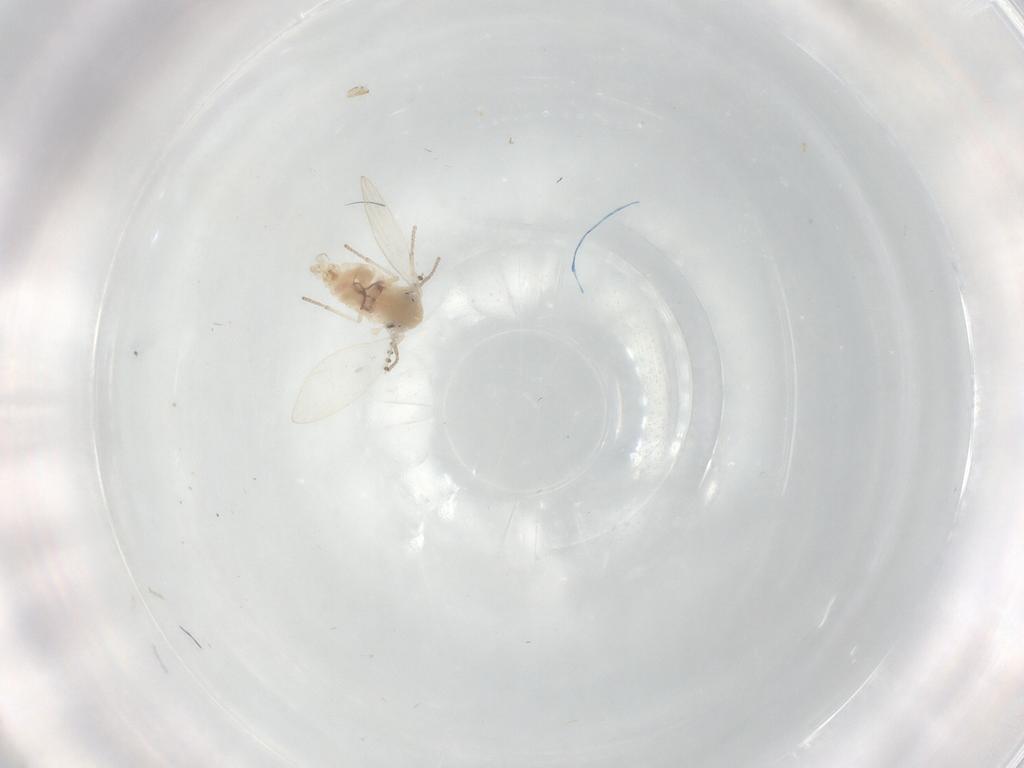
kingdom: Animalia
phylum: Arthropoda
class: Insecta
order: Diptera
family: Psychodidae
